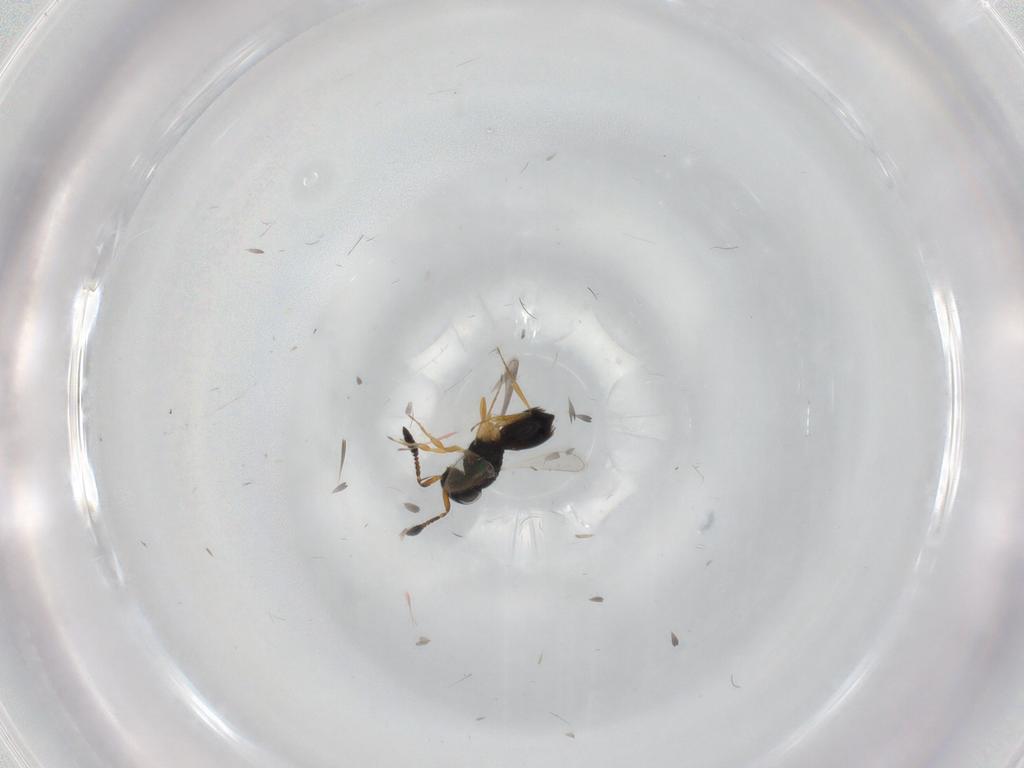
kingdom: Animalia
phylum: Arthropoda
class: Insecta
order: Hymenoptera
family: Scelionidae
